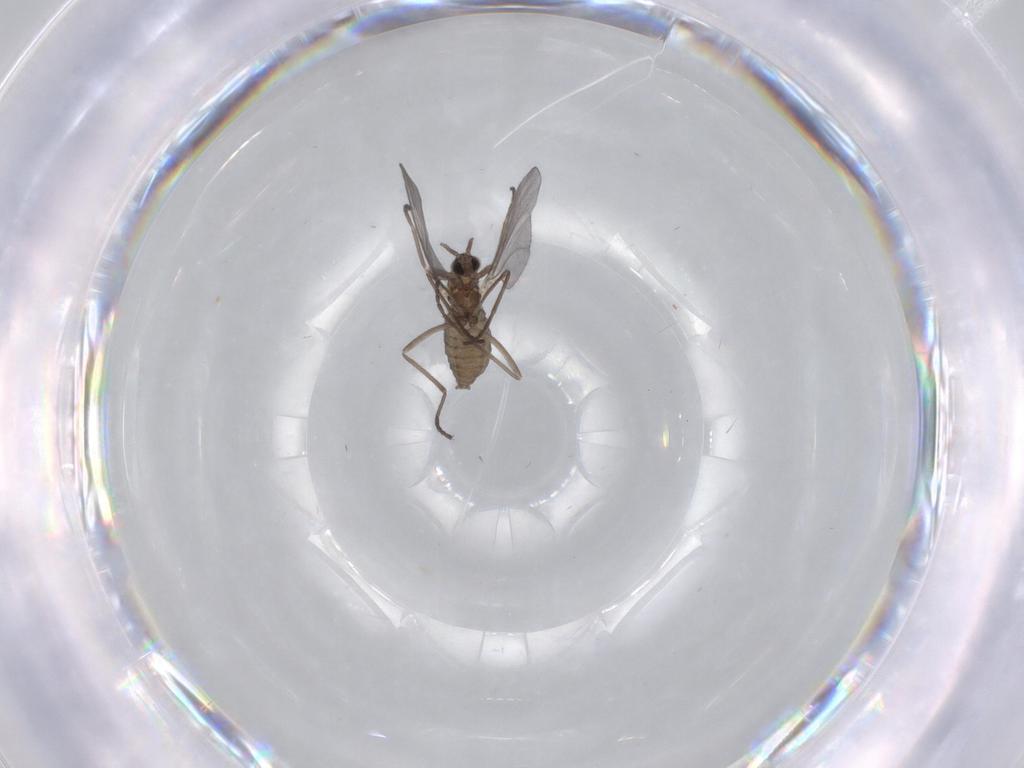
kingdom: Animalia
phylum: Arthropoda
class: Insecta
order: Diptera
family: Cecidomyiidae
